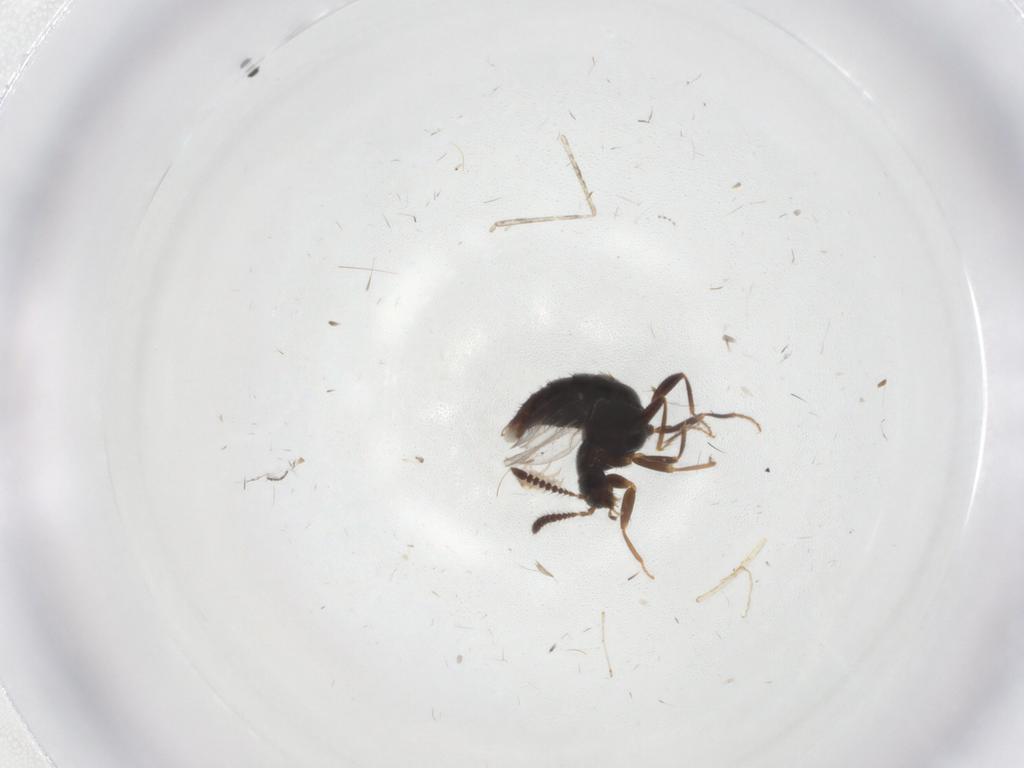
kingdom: Animalia
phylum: Arthropoda
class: Insecta
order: Coleoptera
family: Staphylinidae
